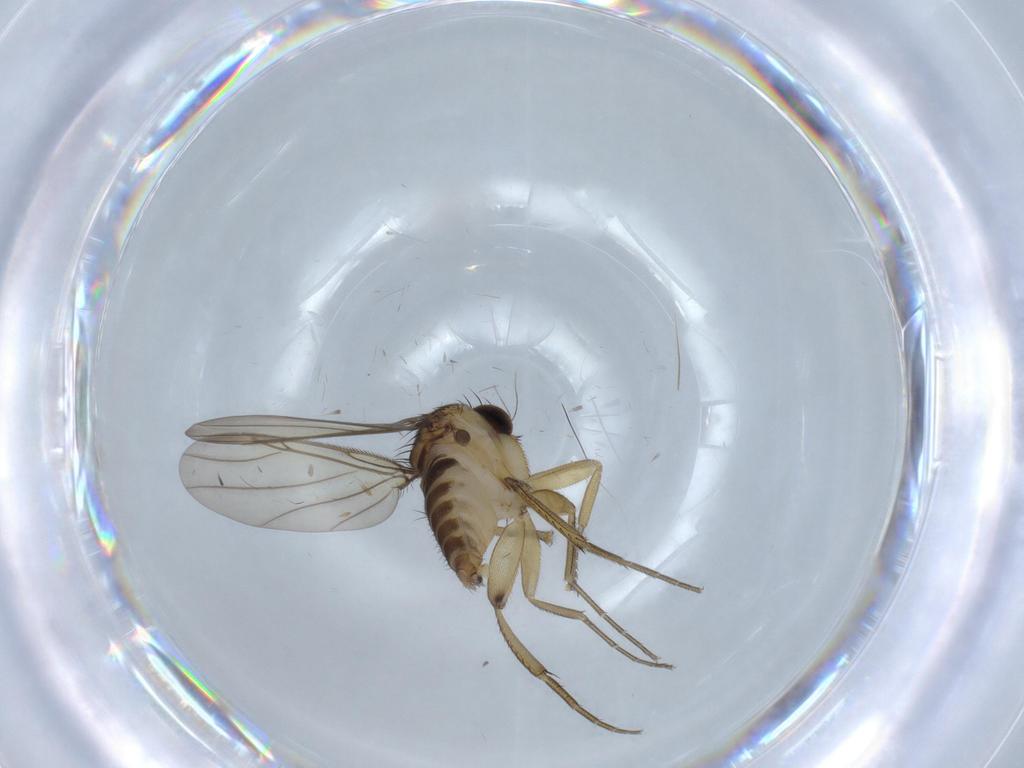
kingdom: Animalia
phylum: Arthropoda
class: Insecta
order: Diptera
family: Phoridae
